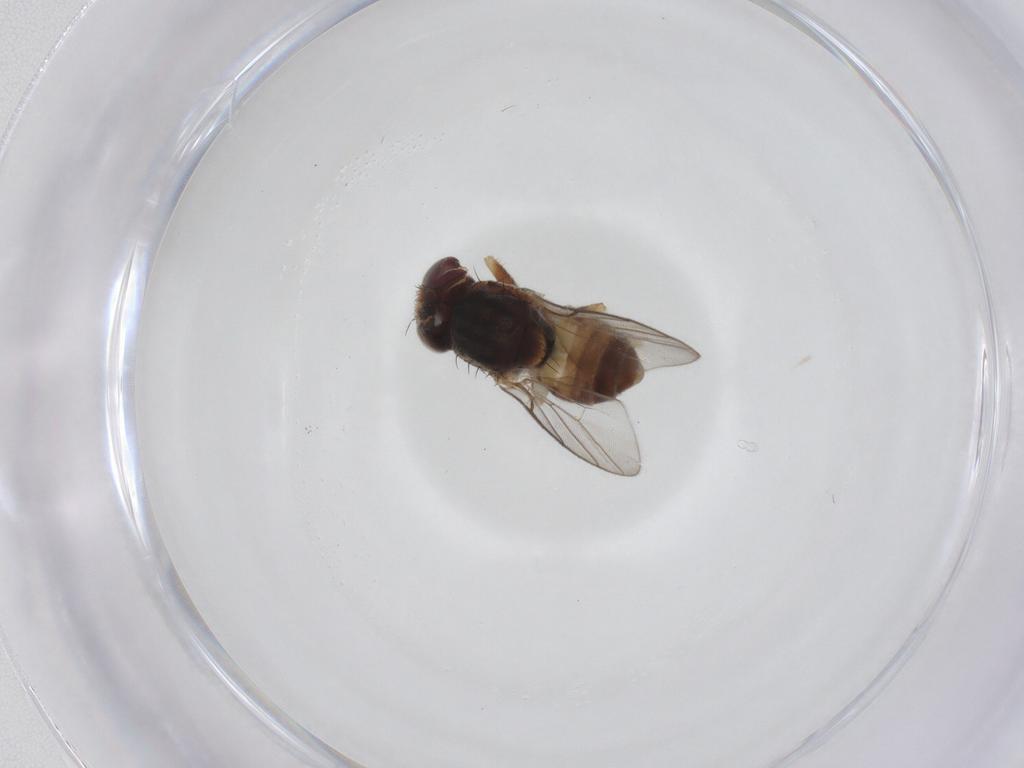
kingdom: Animalia
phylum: Arthropoda
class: Insecta
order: Diptera
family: Chloropidae
